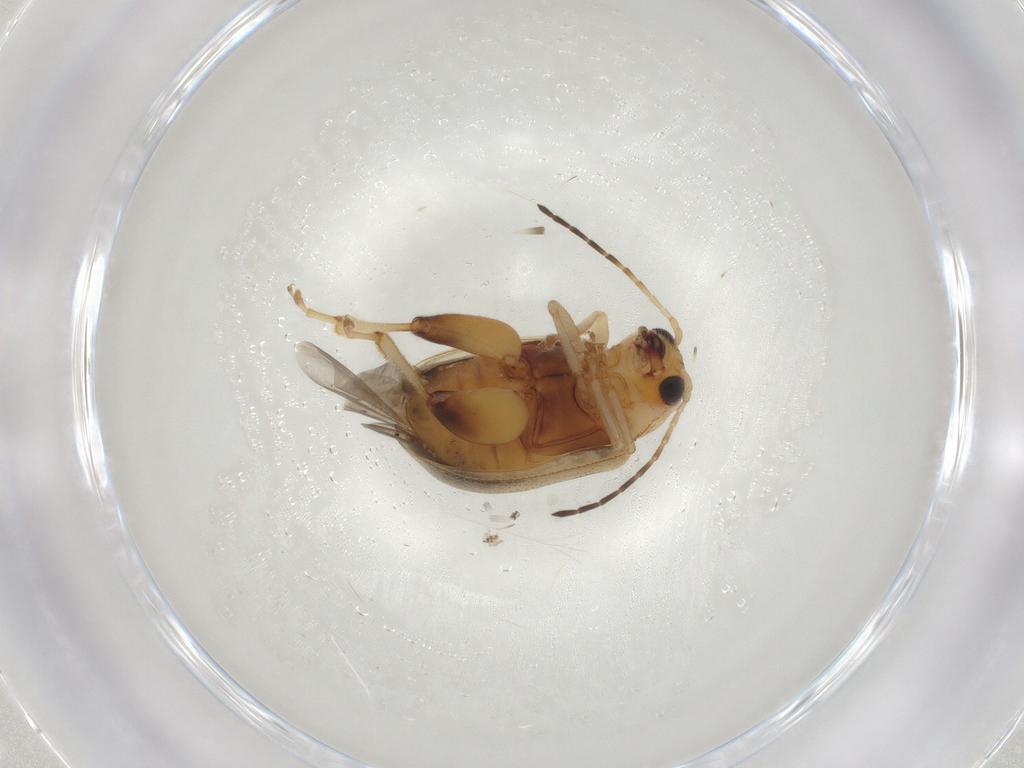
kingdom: Animalia
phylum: Arthropoda
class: Insecta
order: Coleoptera
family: Chrysomelidae
